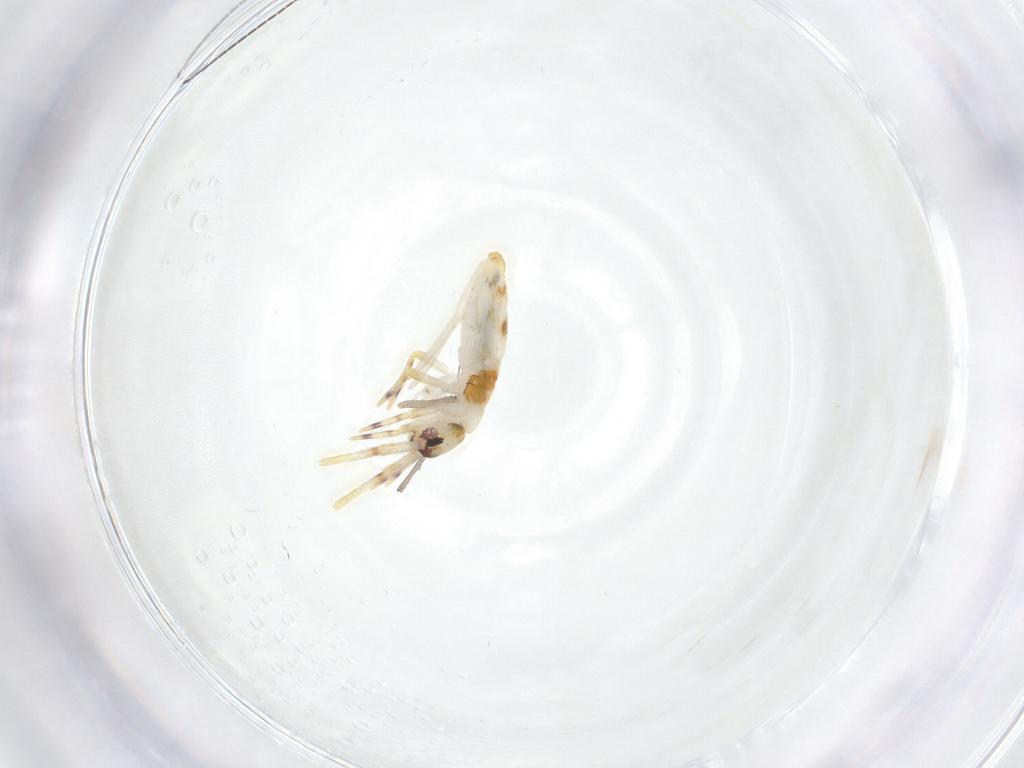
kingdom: Animalia
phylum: Arthropoda
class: Collembola
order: Entomobryomorpha
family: Entomobryidae
